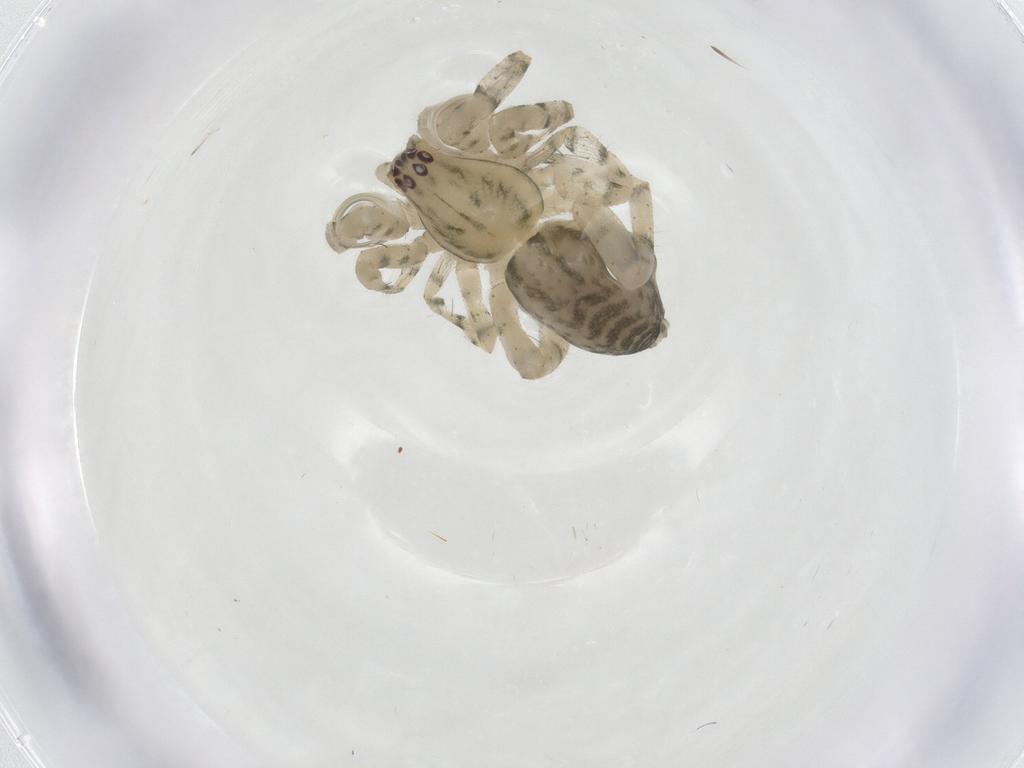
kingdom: Animalia
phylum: Arthropoda
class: Arachnida
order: Araneae
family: Anyphaenidae
